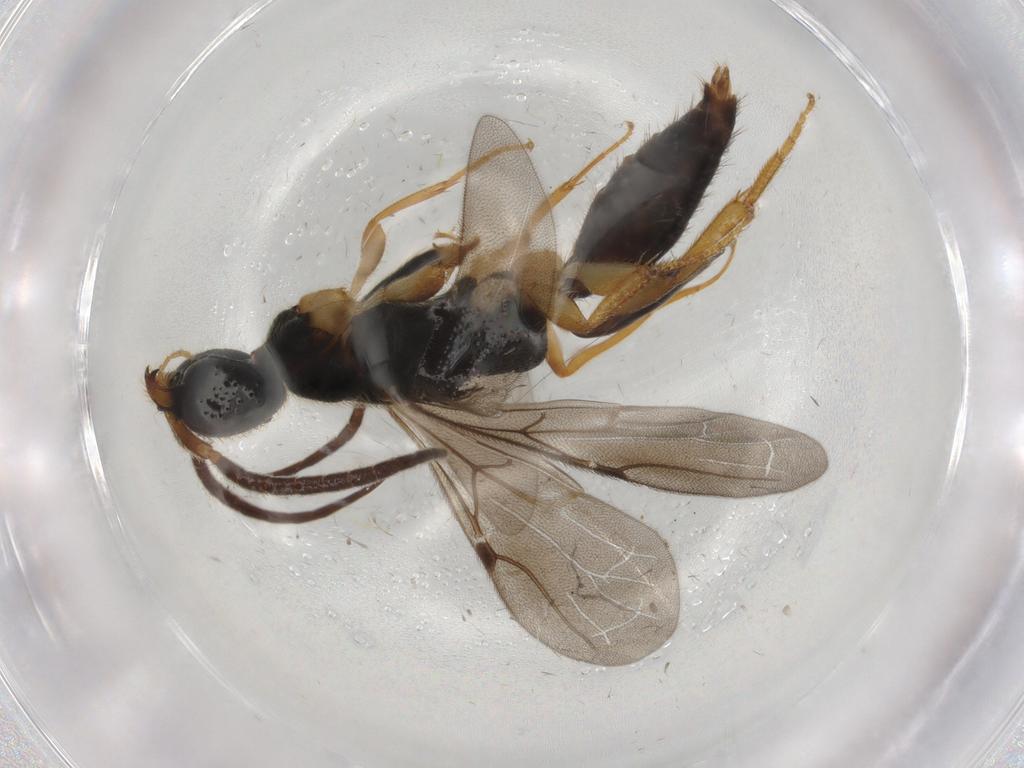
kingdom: Animalia
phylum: Arthropoda
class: Insecta
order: Hymenoptera
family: Bethylidae
